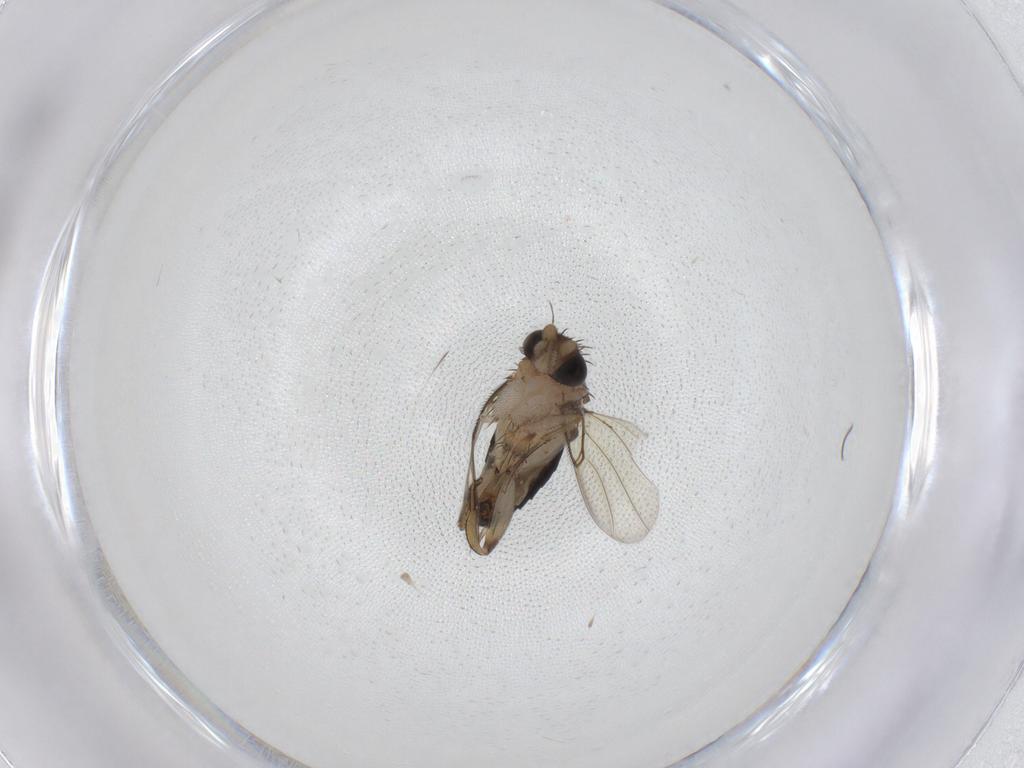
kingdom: Animalia
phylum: Arthropoda
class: Insecta
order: Diptera
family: Phoridae
